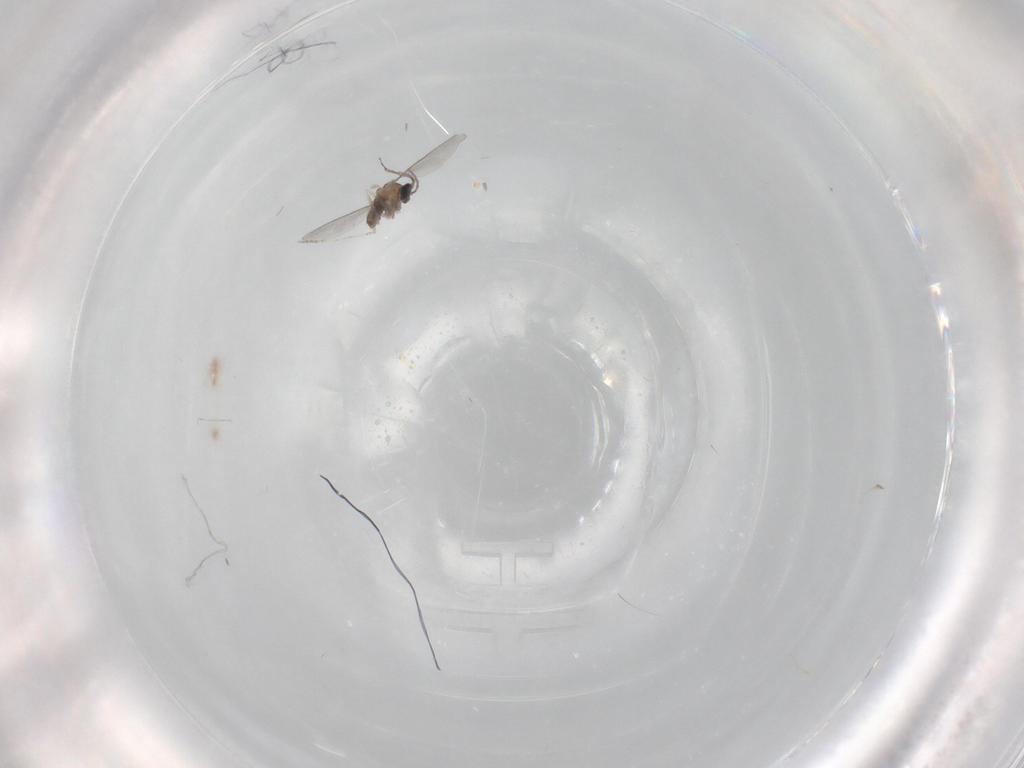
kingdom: Animalia
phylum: Arthropoda
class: Insecta
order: Diptera
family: Cecidomyiidae
